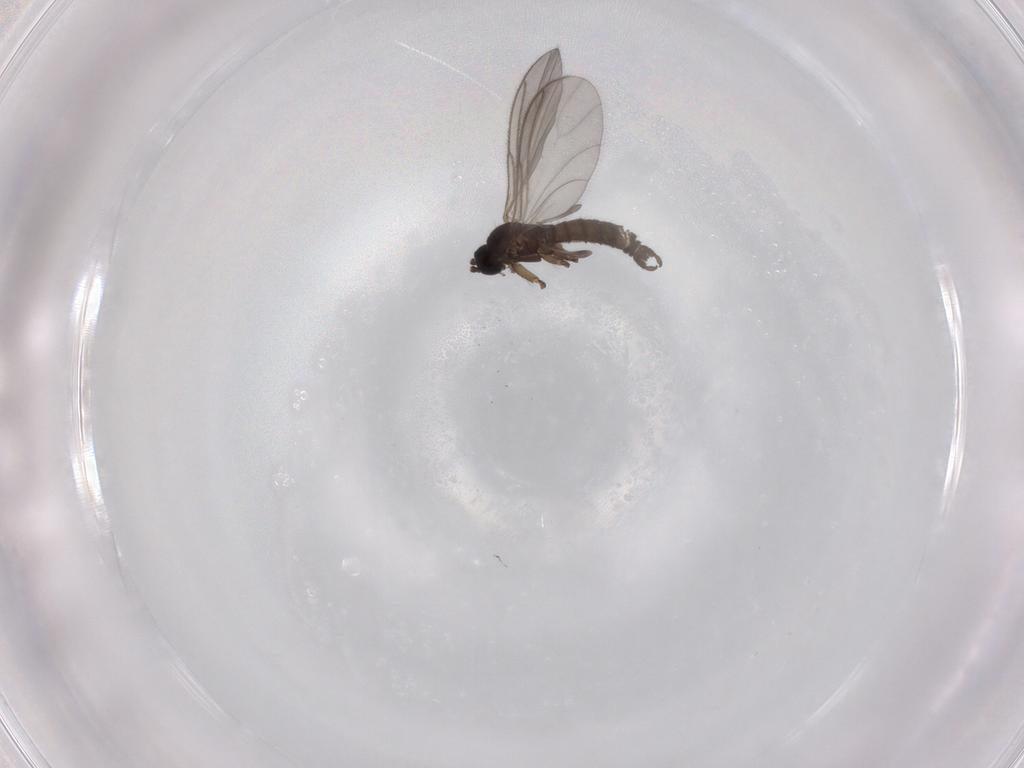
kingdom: Animalia
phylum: Arthropoda
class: Insecta
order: Diptera
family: Sciaridae
